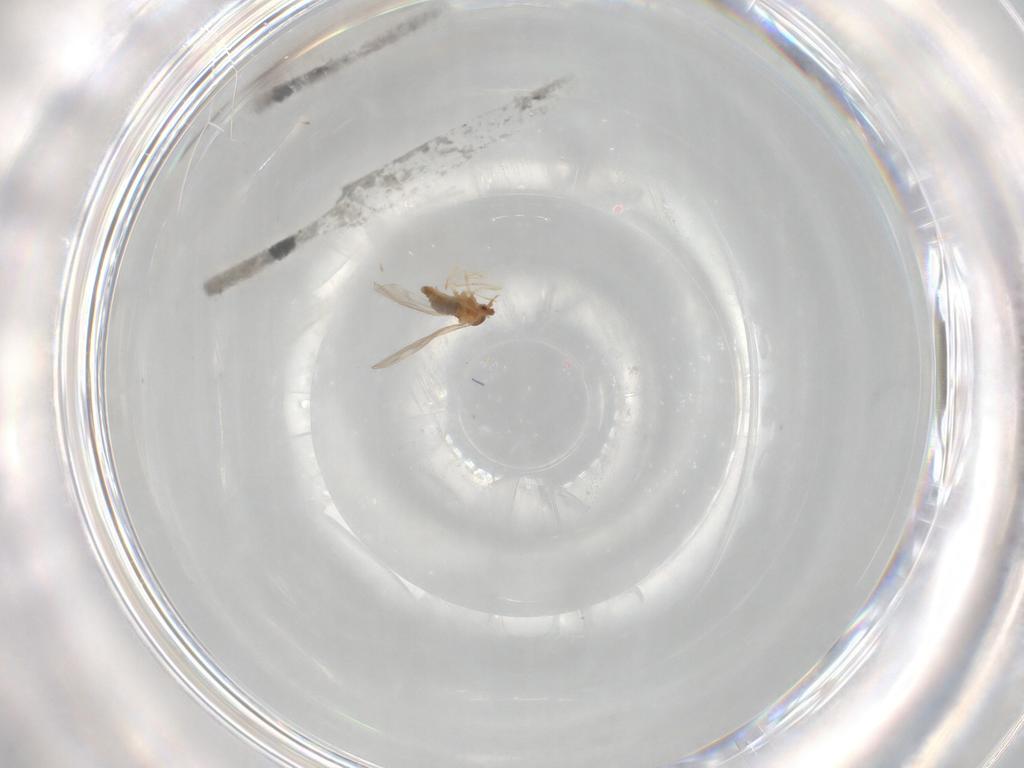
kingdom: Animalia
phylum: Arthropoda
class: Insecta
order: Diptera
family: Cecidomyiidae
